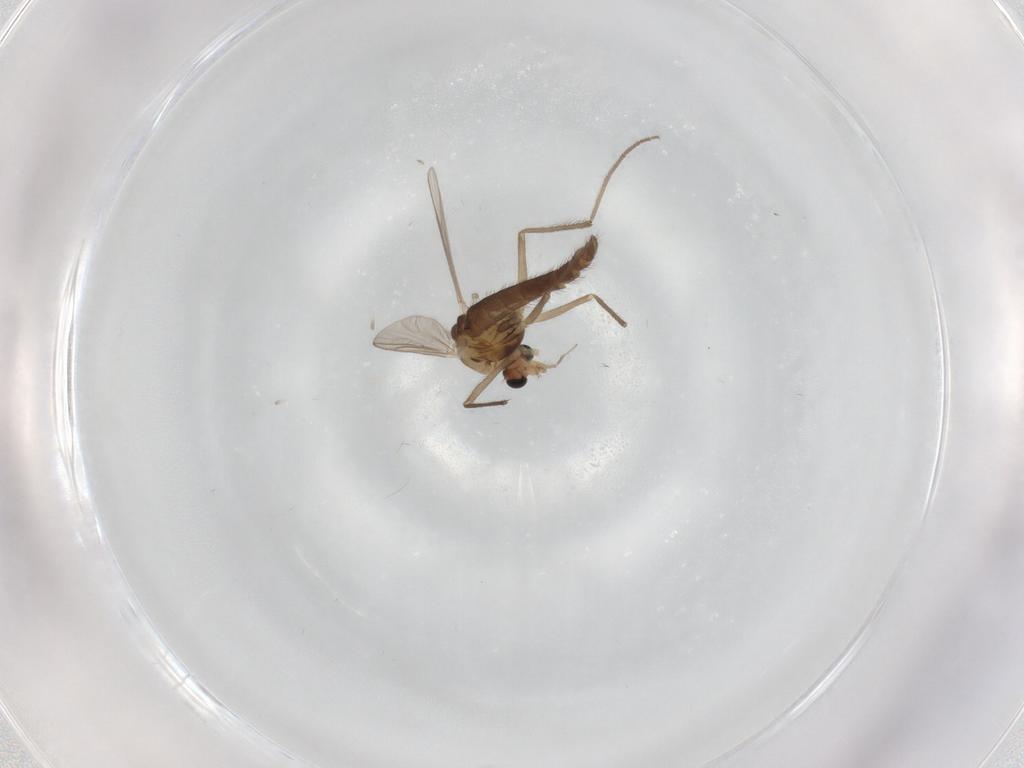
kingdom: Animalia
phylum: Arthropoda
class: Insecta
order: Diptera
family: Chironomidae
